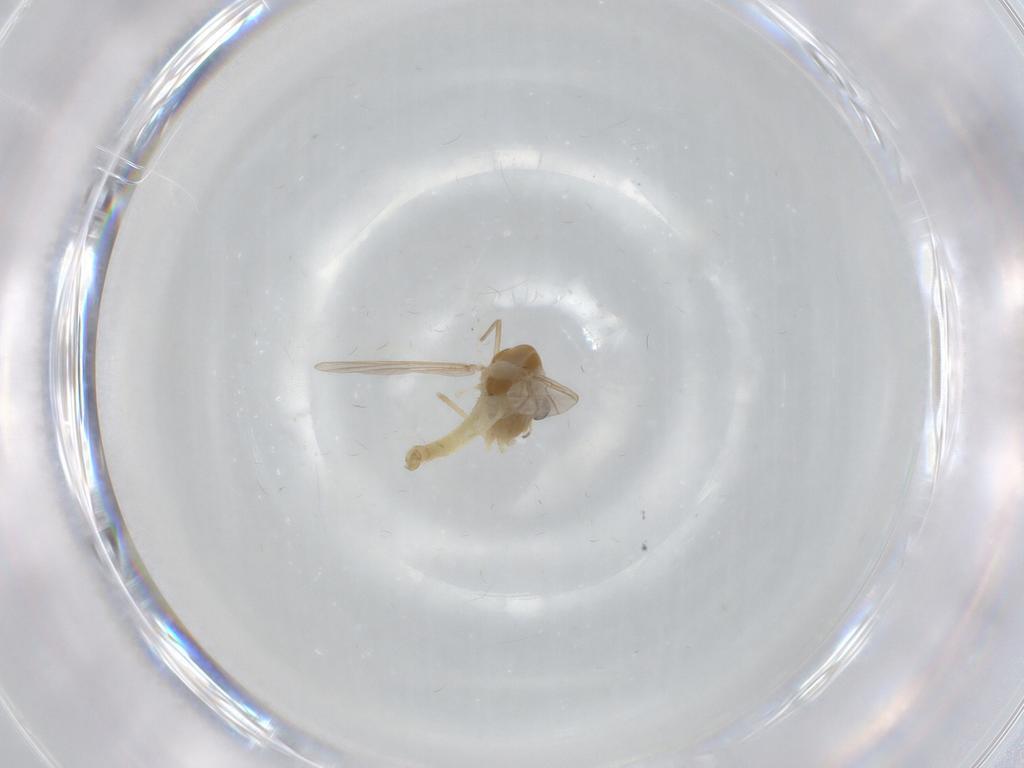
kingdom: Animalia
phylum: Arthropoda
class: Insecta
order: Diptera
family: Chironomidae
